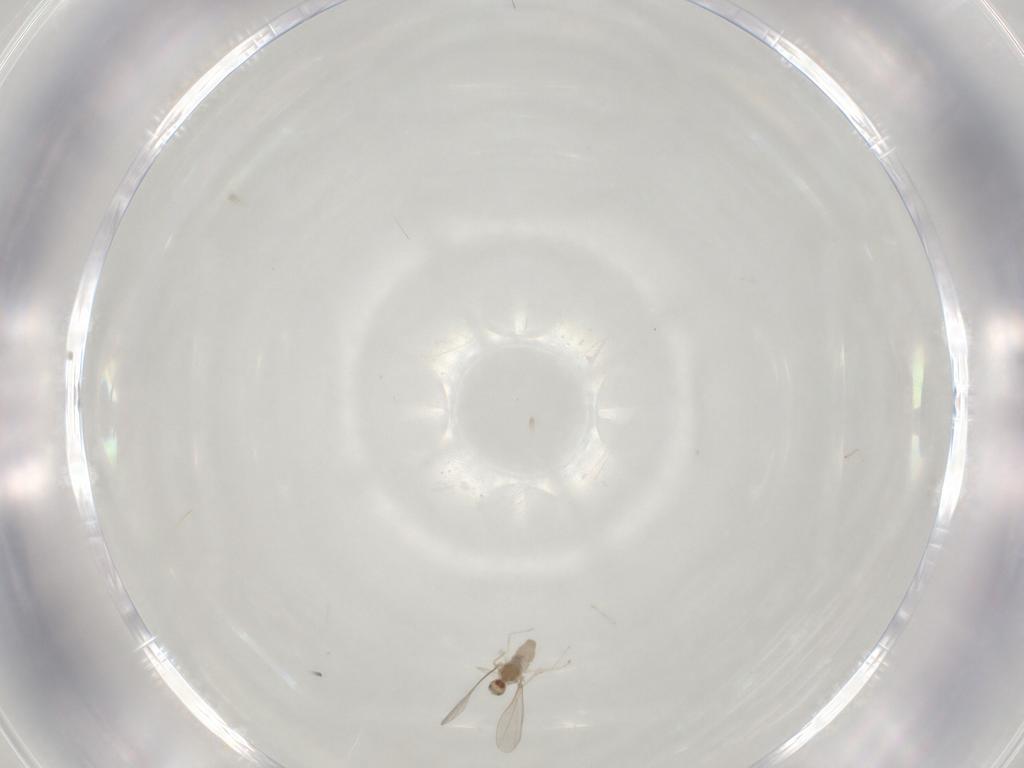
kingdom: Animalia
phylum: Arthropoda
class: Insecta
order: Diptera
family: Cecidomyiidae
